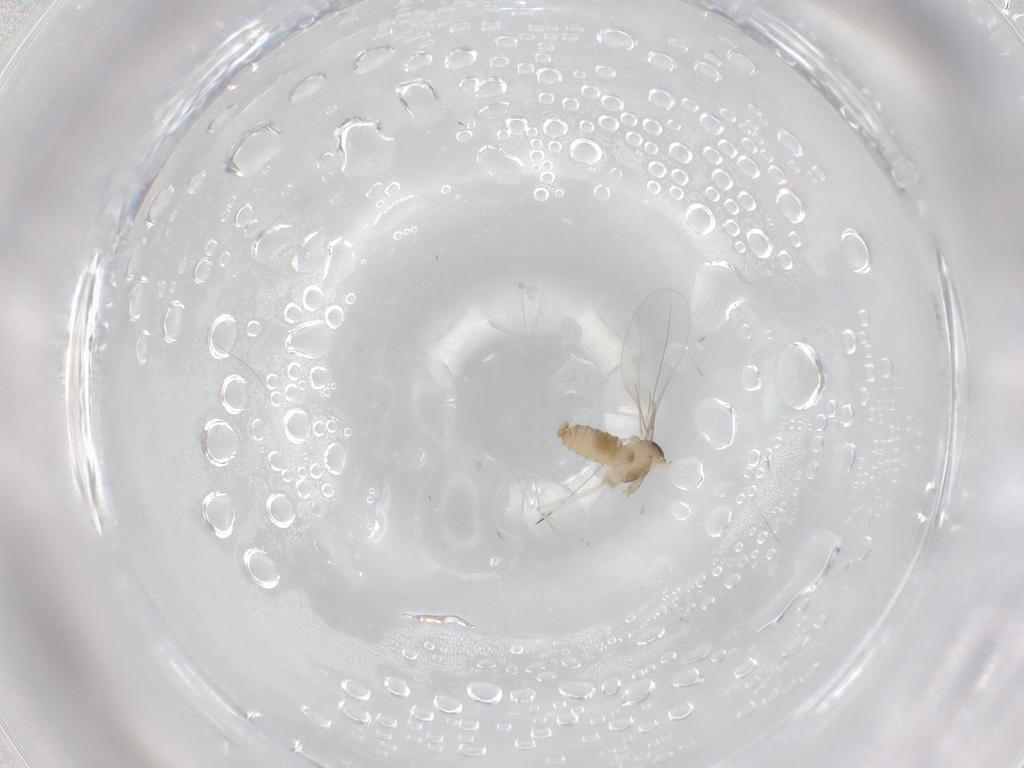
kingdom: Animalia
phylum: Arthropoda
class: Insecta
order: Diptera
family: Cecidomyiidae
